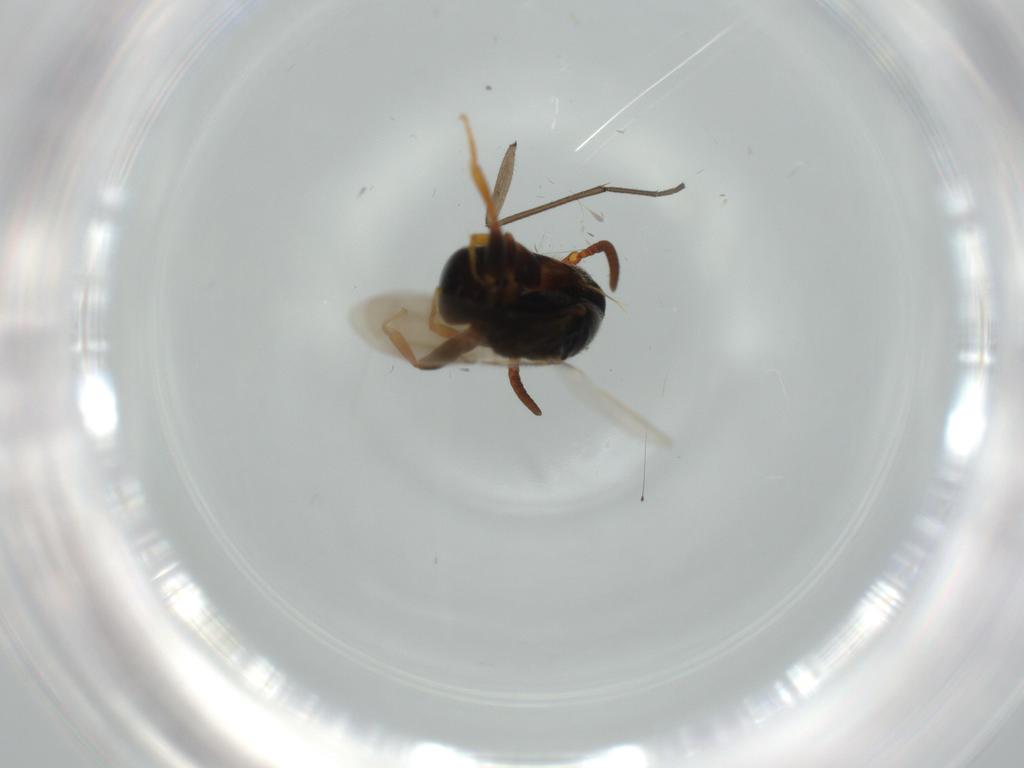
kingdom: Animalia
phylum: Arthropoda
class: Insecta
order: Hymenoptera
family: Bethylidae
